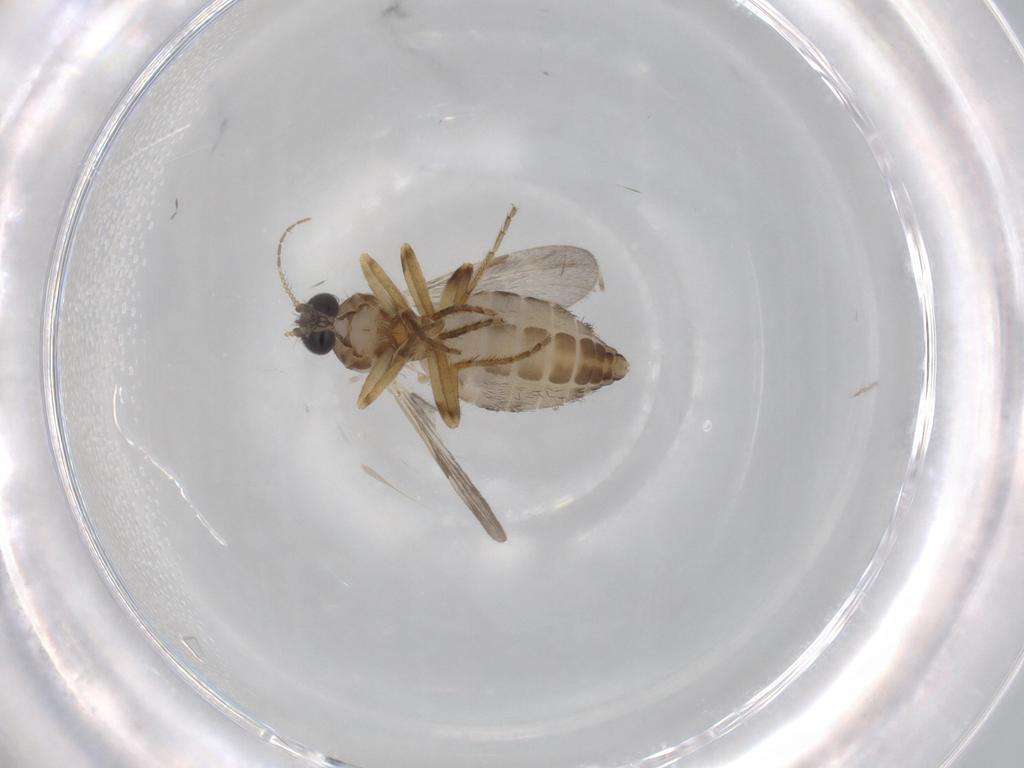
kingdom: Animalia
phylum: Arthropoda
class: Insecta
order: Diptera
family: Ceratopogonidae
